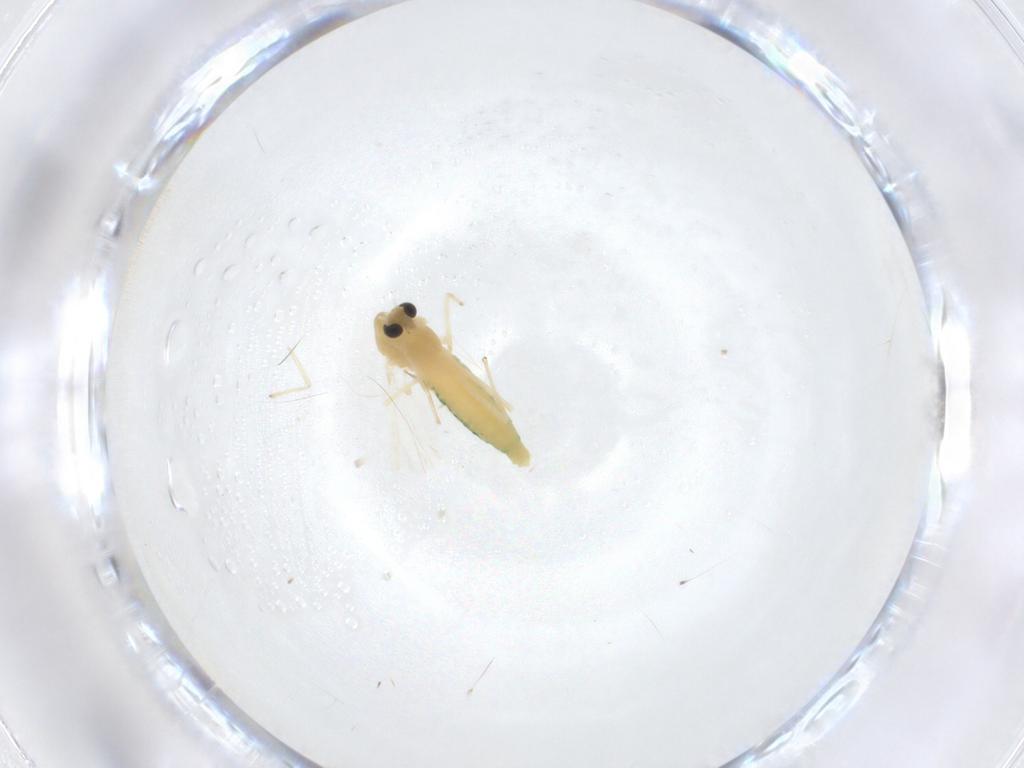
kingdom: Animalia
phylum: Arthropoda
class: Insecta
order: Diptera
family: Chironomidae
